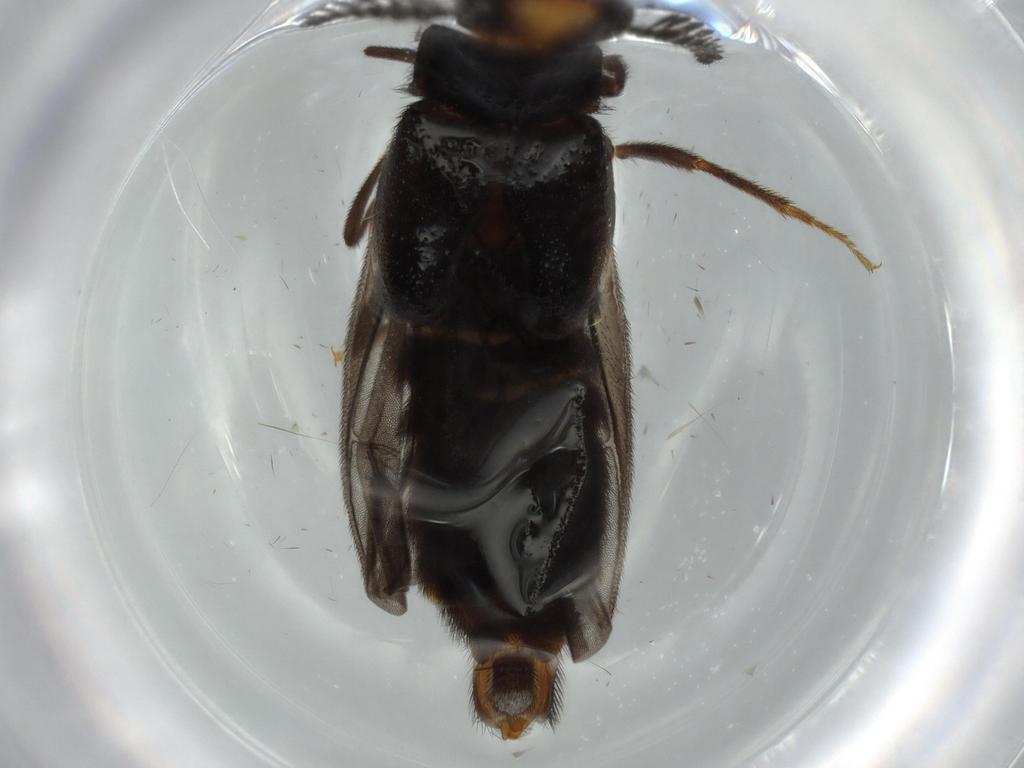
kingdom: Animalia
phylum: Arthropoda
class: Insecta
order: Coleoptera
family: Phengodidae
